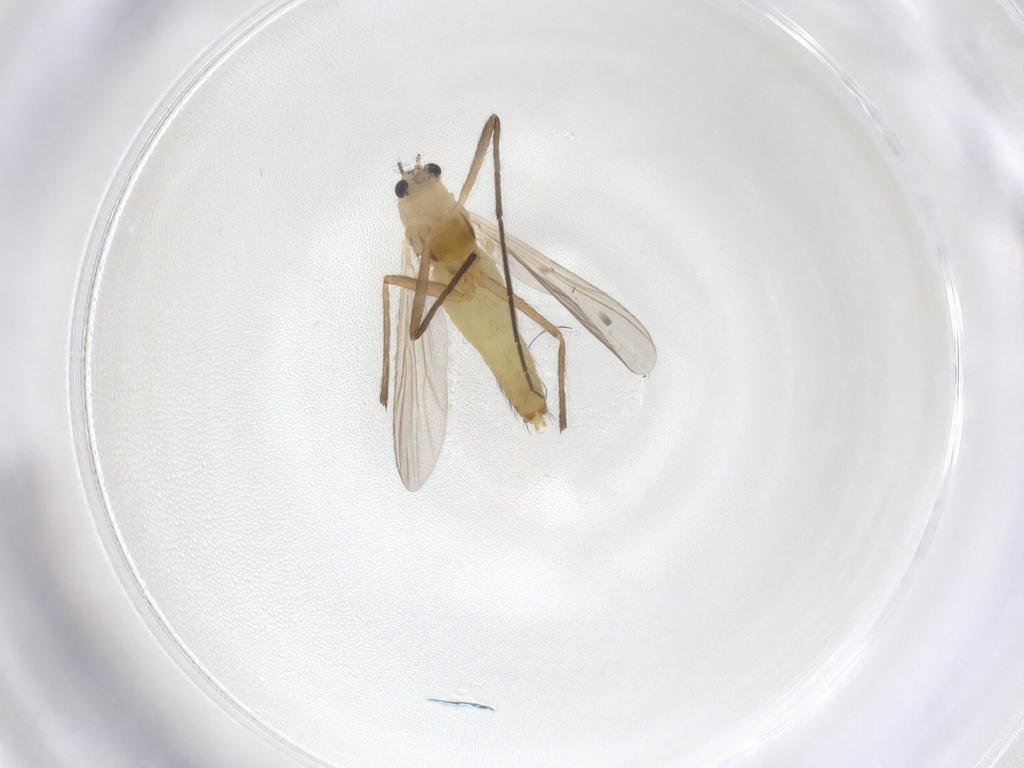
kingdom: Animalia
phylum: Arthropoda
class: Insecta
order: Diptera
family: Chironomidae
